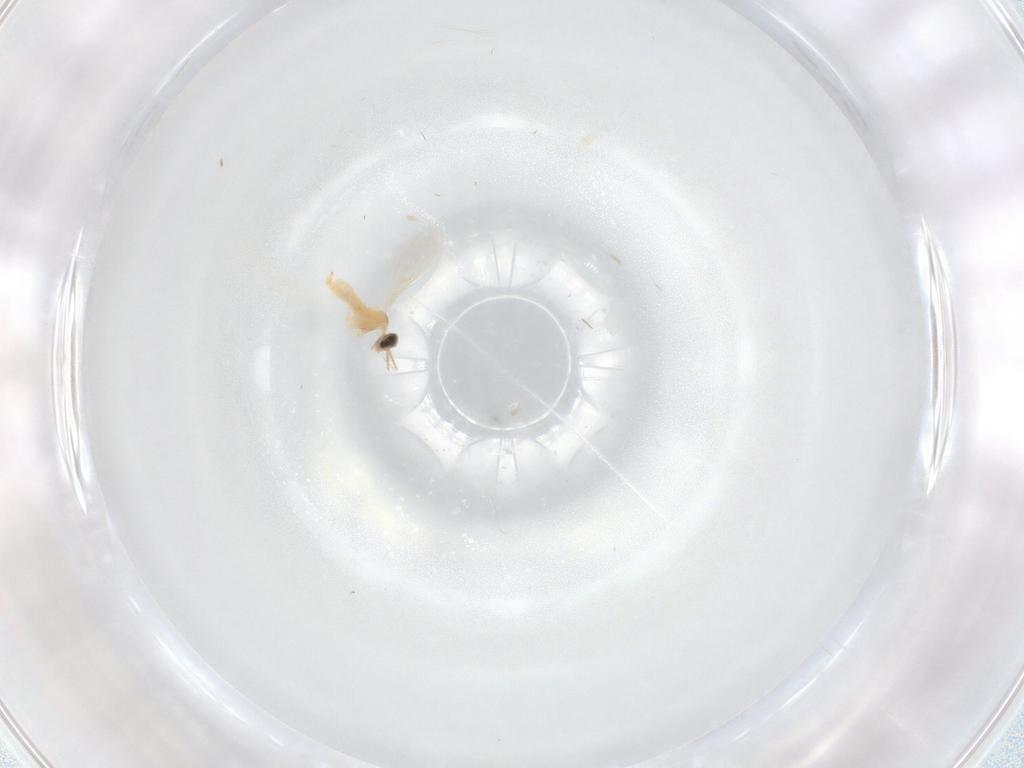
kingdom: Animalia
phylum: Arthropoda
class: Insecta
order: Diptera
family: Cecidomyiidae
